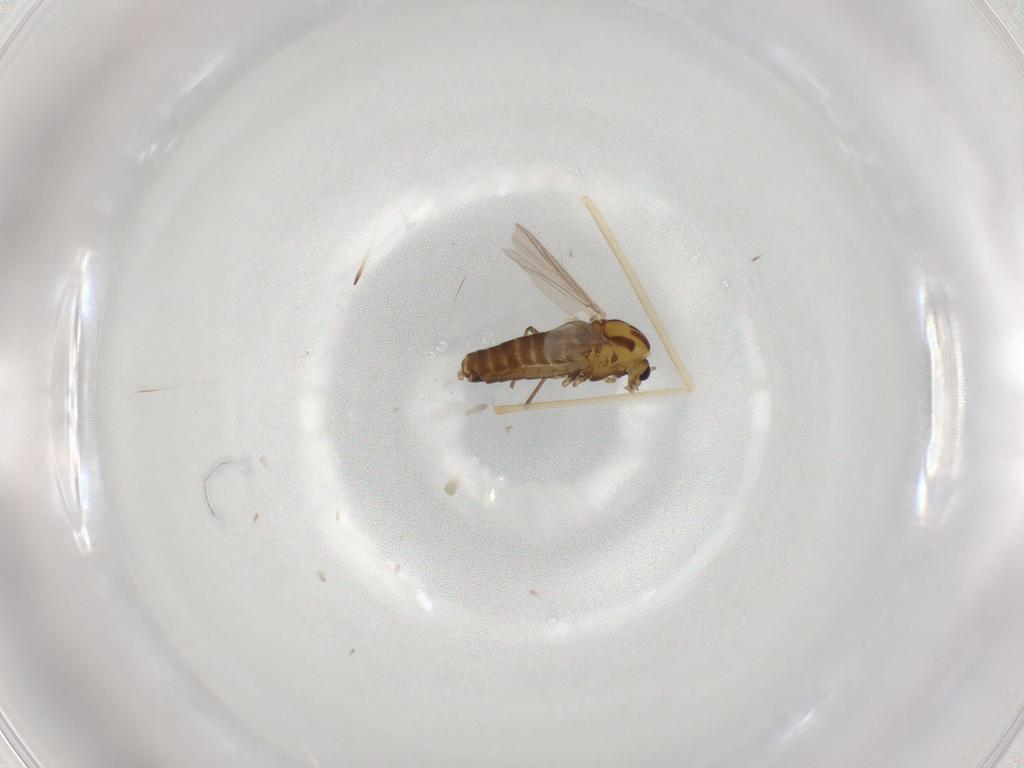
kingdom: Animalia
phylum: Arthropoda
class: Insecta
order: Diptera
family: Chironomidae
